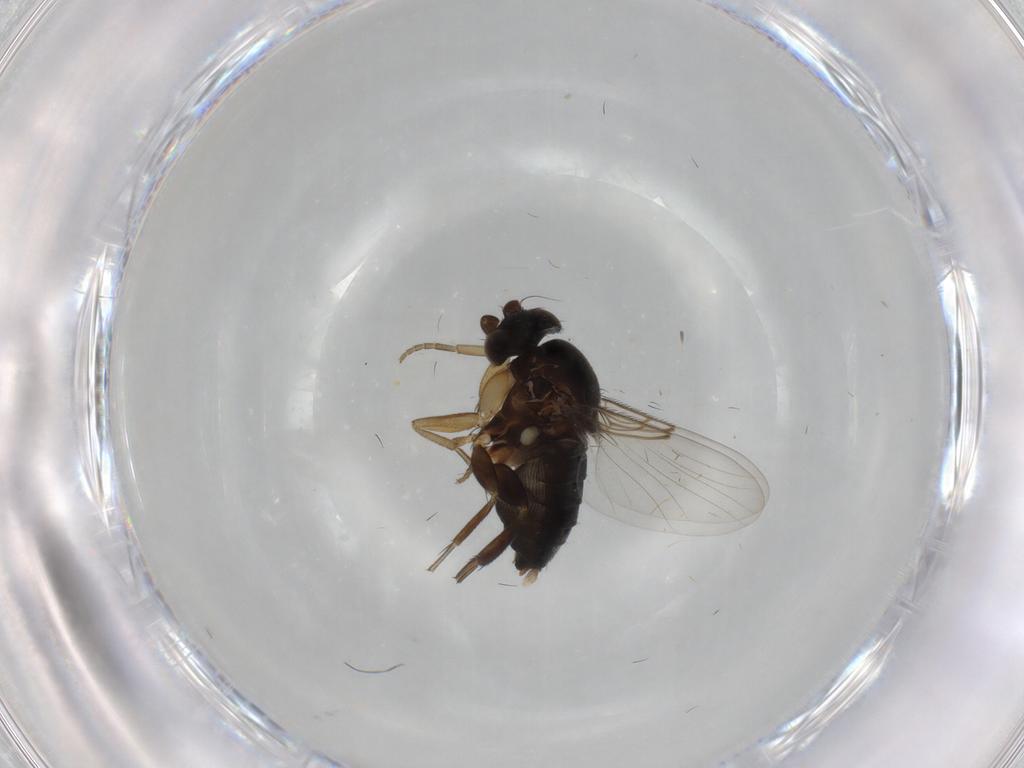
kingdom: Animalia
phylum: Arthropoda
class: Insecta
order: Diptera
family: Phoridae
